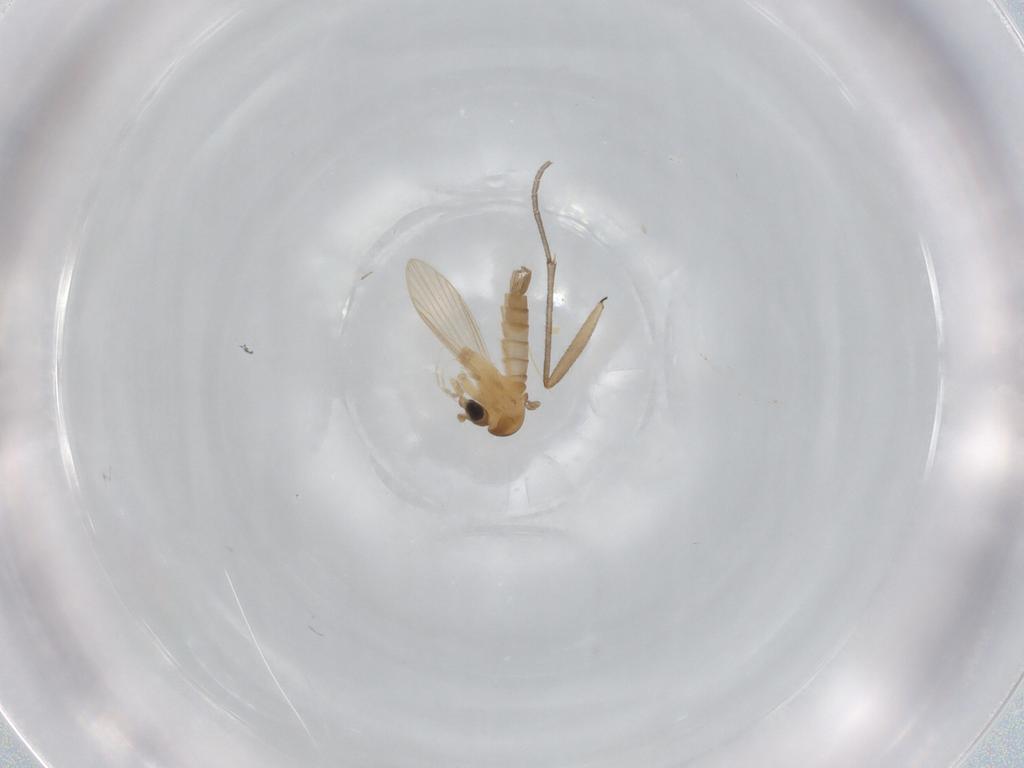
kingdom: Animalia
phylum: Arthropoda
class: Insecta
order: Diptera
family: Psychodidae
